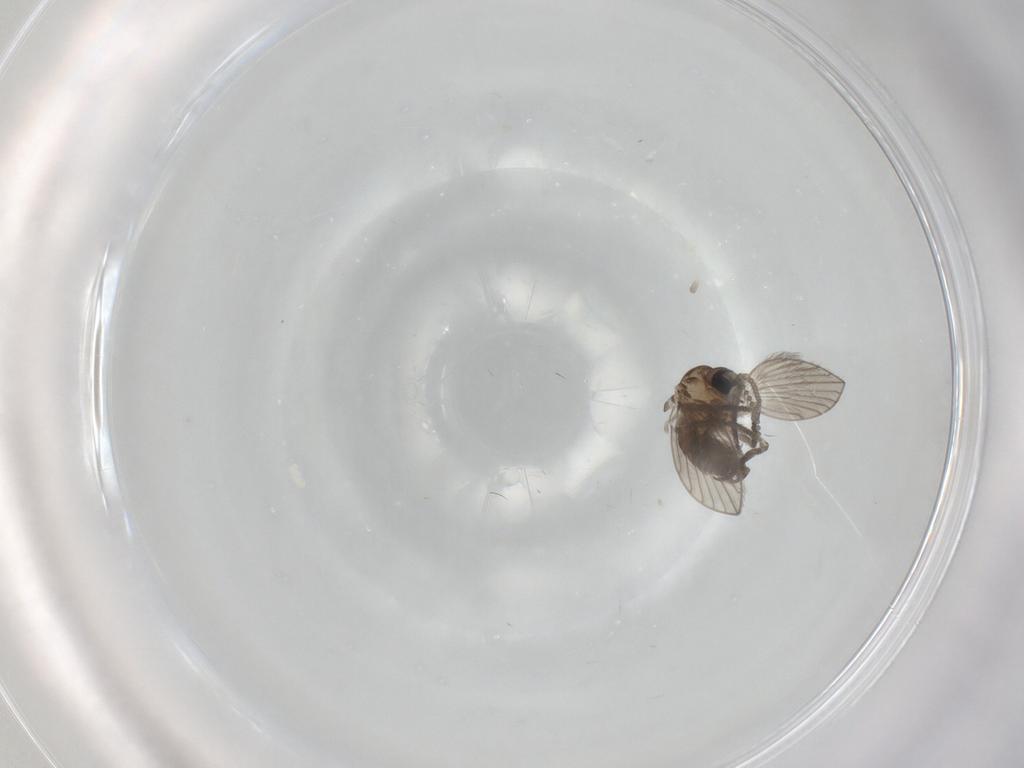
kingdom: Animalia
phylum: Arthropoda
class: Insecta
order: Diptera
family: Psychodidae
